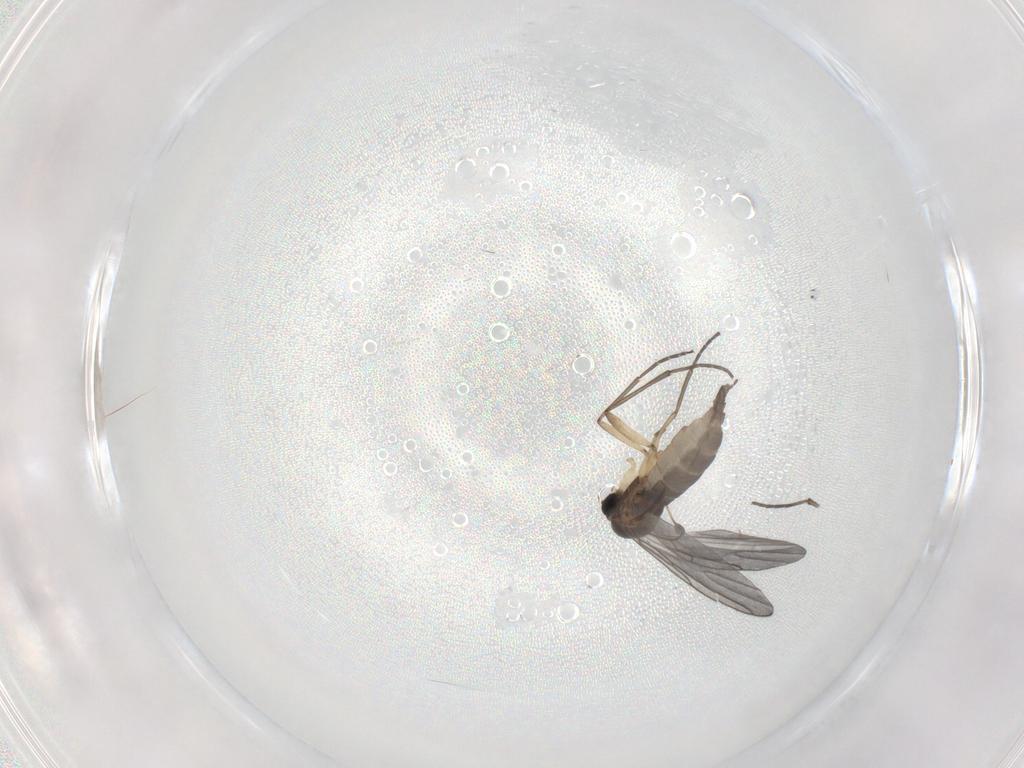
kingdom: Animalia
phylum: Arthropoda
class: Insecta
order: Diptera
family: Sciaridae
